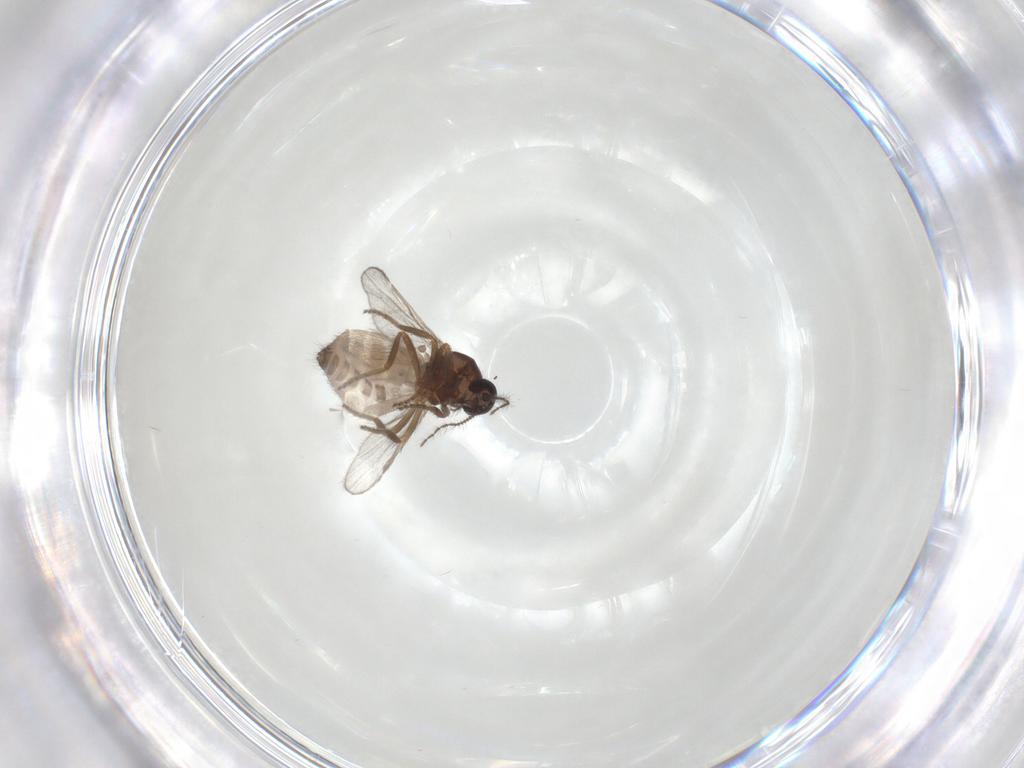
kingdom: Animalia
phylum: Arthropoda
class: Insecta
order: Diptera
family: Ceratopogonidae
